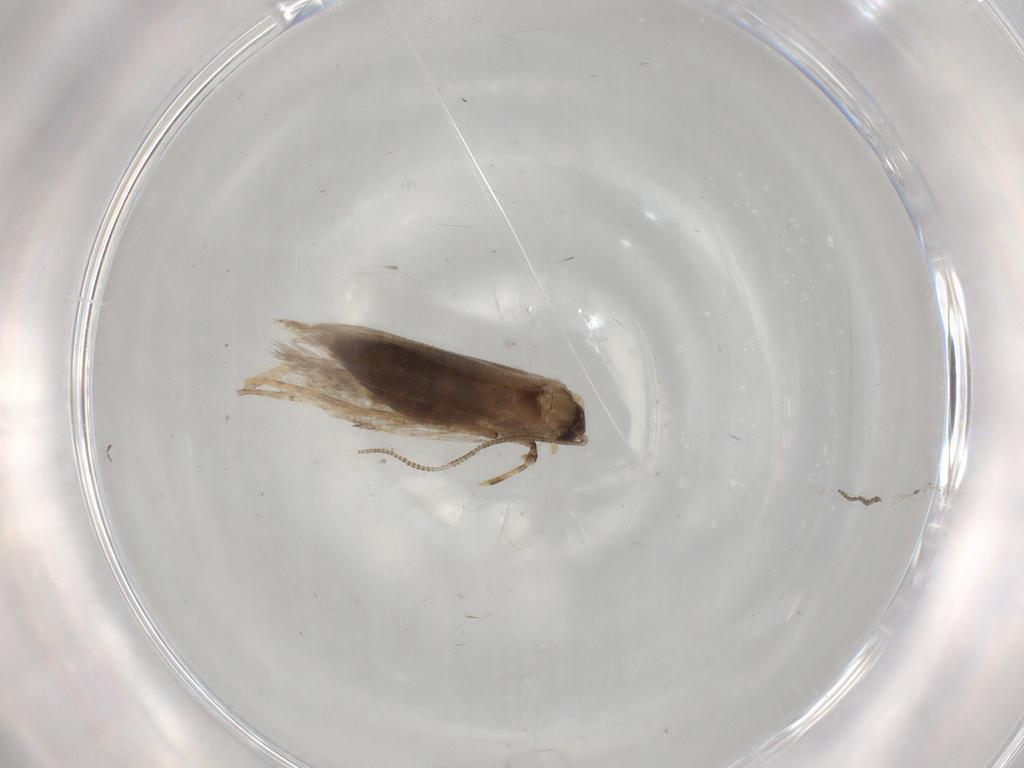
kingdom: Animalia
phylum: Arthropoda
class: Insecta
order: Lepidoptera
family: Tineidae
